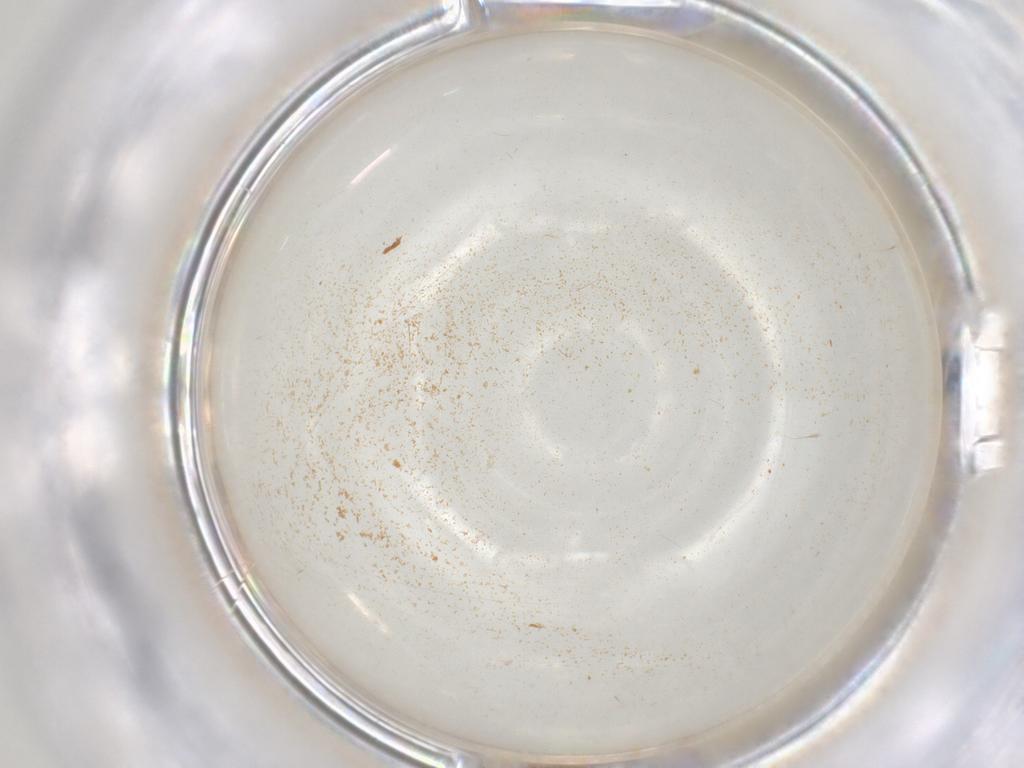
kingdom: Animalia
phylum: Arthropoda
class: Insecta
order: Hymenoptera
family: Scelionidae
